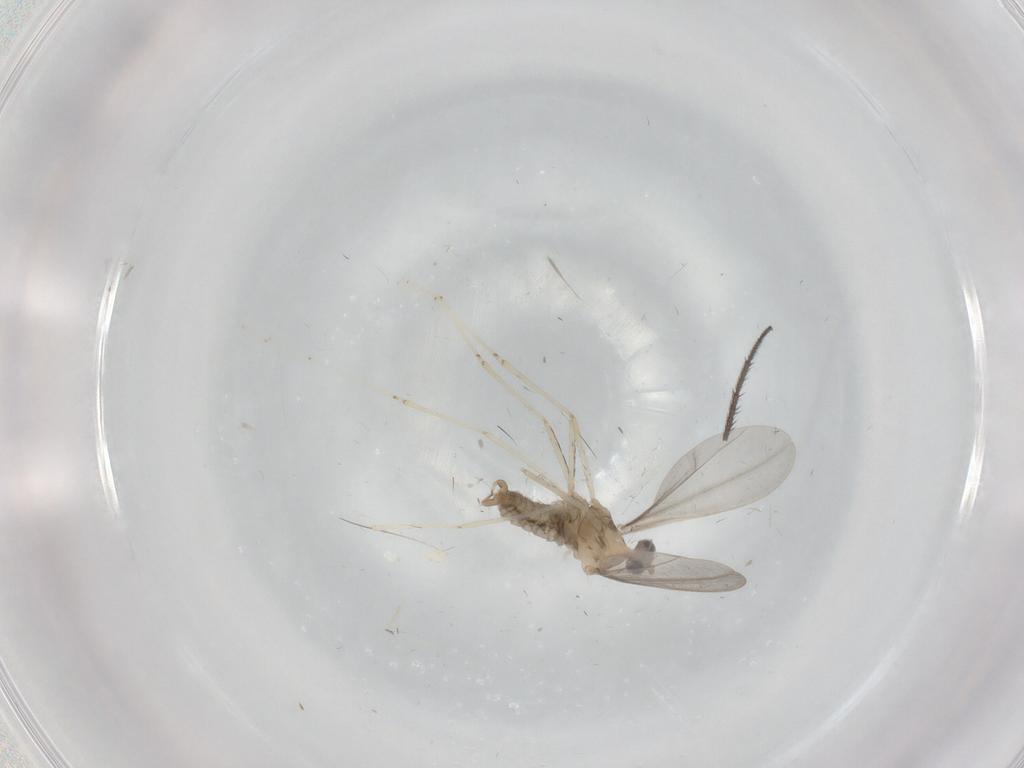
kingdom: Animalia
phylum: Arthropoda
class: Insecta
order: Diptera
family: Cecidomyiidae
